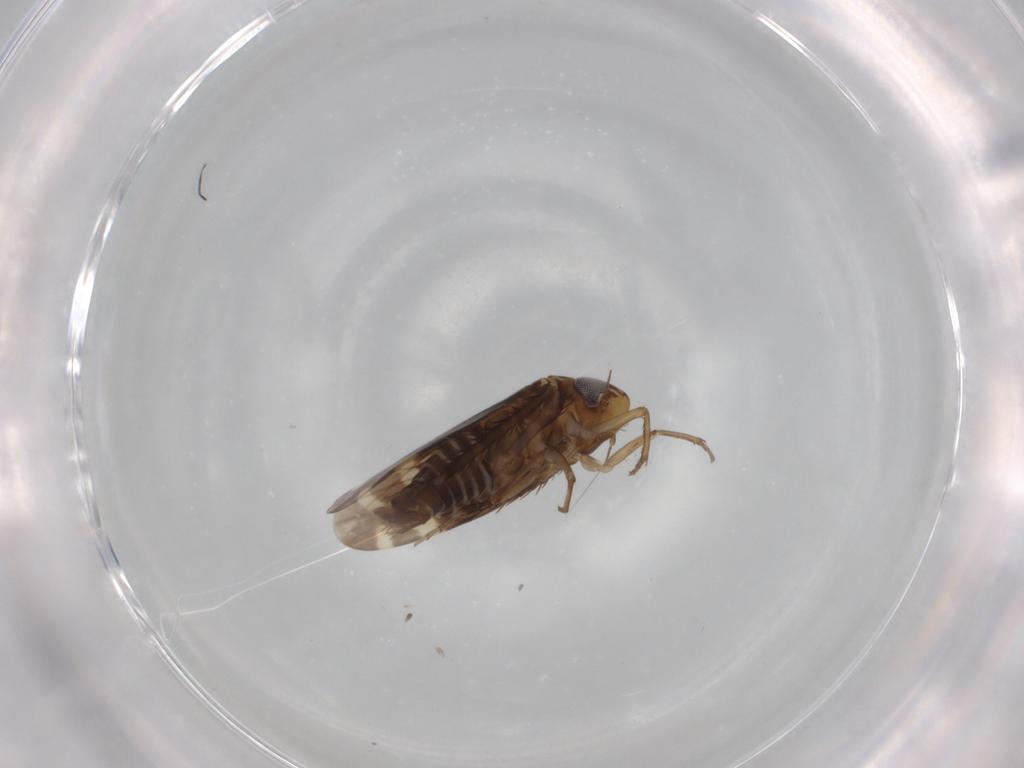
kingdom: Animalia
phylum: Arthropoda
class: Insecta
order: Hemiptera
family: Cicadellidae
